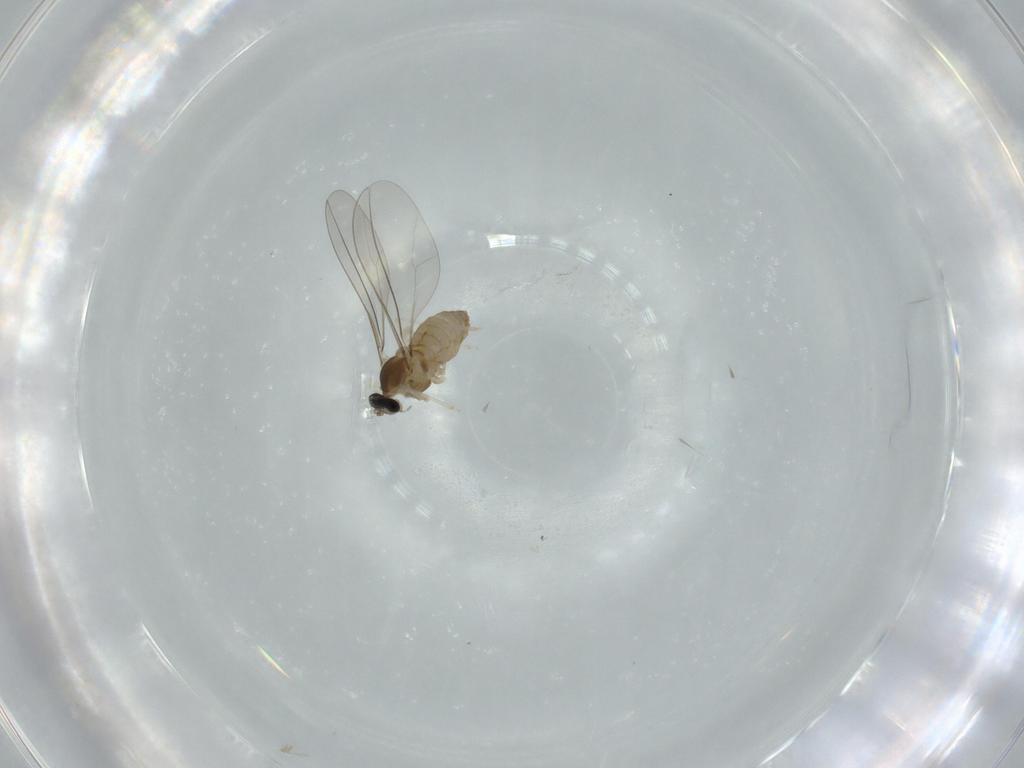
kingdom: Animalia
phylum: Arthropoda
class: Insecta
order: Diptera
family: Cecidomyiidae
